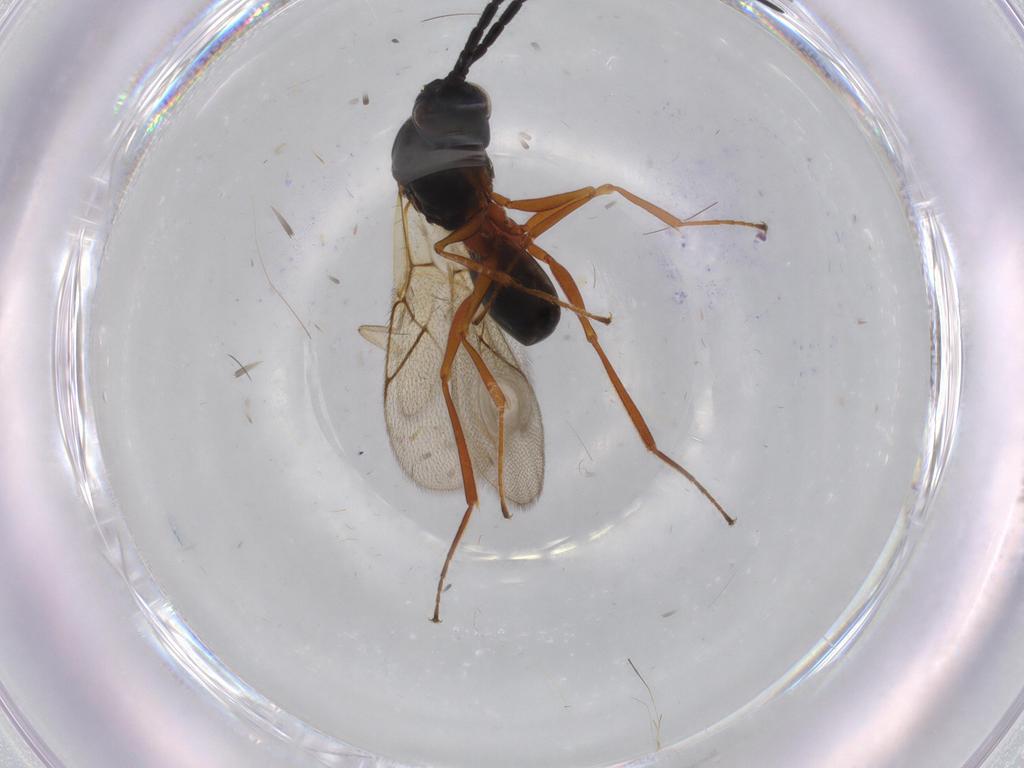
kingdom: Animalia
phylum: Arthropoda
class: Insecta
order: Hymenoptera
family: Figitidae
